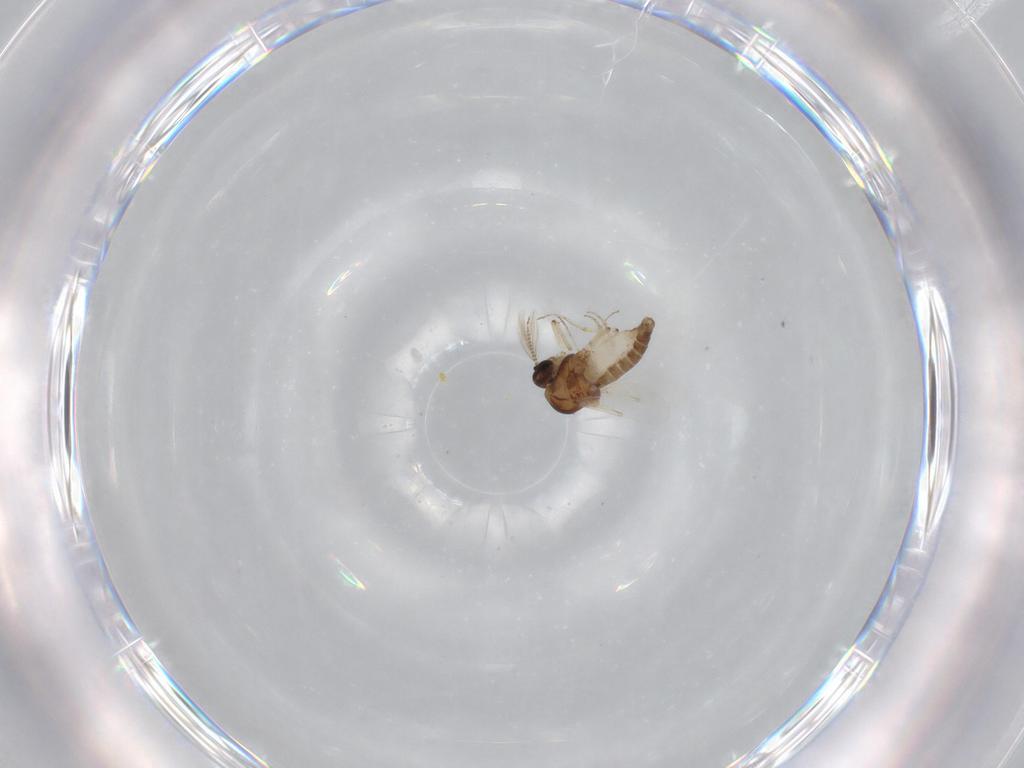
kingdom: Animalia
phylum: Arthropoda
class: Insecta
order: Diptera
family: Ceratopogonidae
